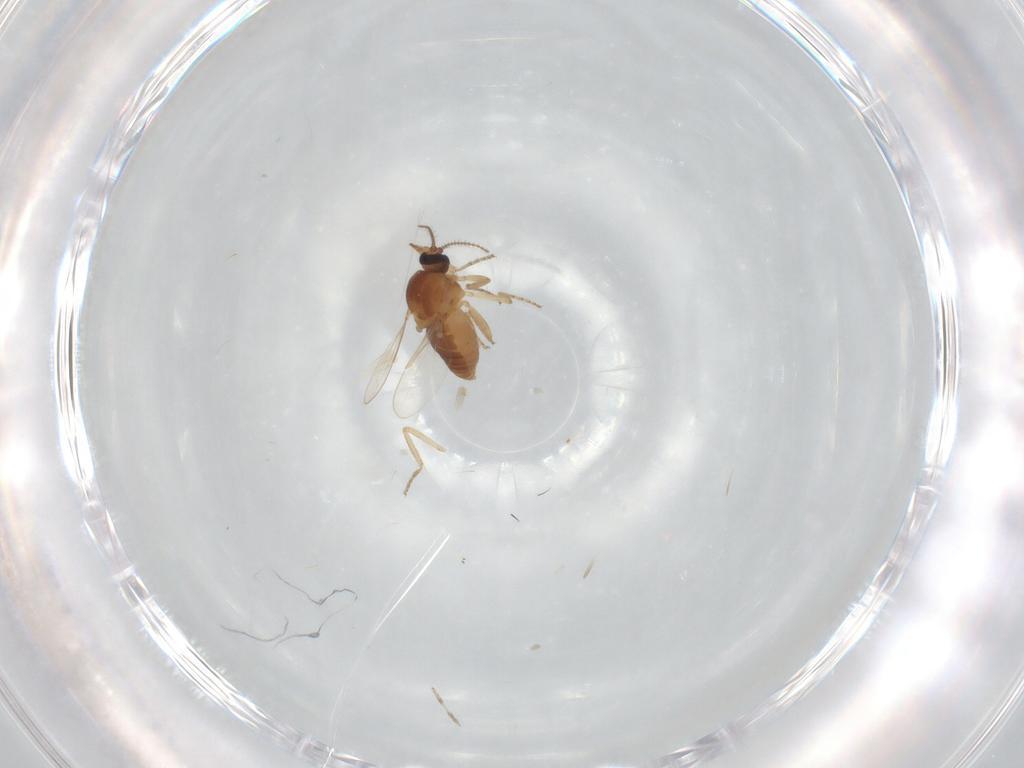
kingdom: Animalia
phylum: Arthropoda
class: Insecta
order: Diptera
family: Ceratopogonidae
